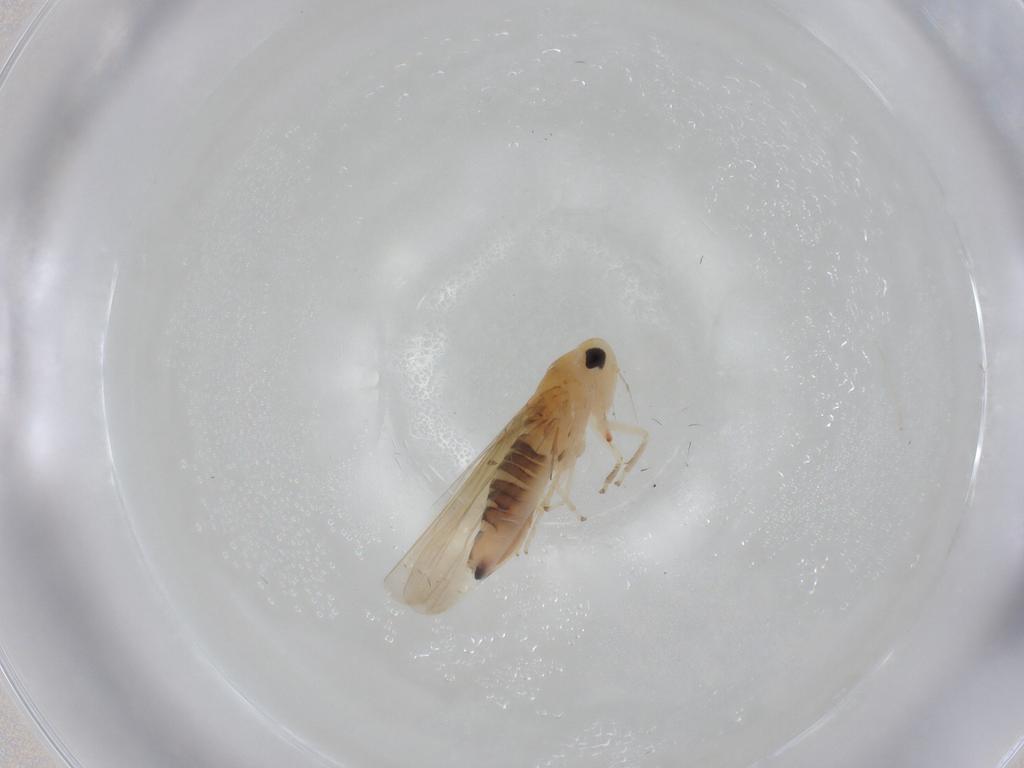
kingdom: Animalia
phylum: Arthropoda
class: Insecta
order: Hemiptera
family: Cicadellidae
